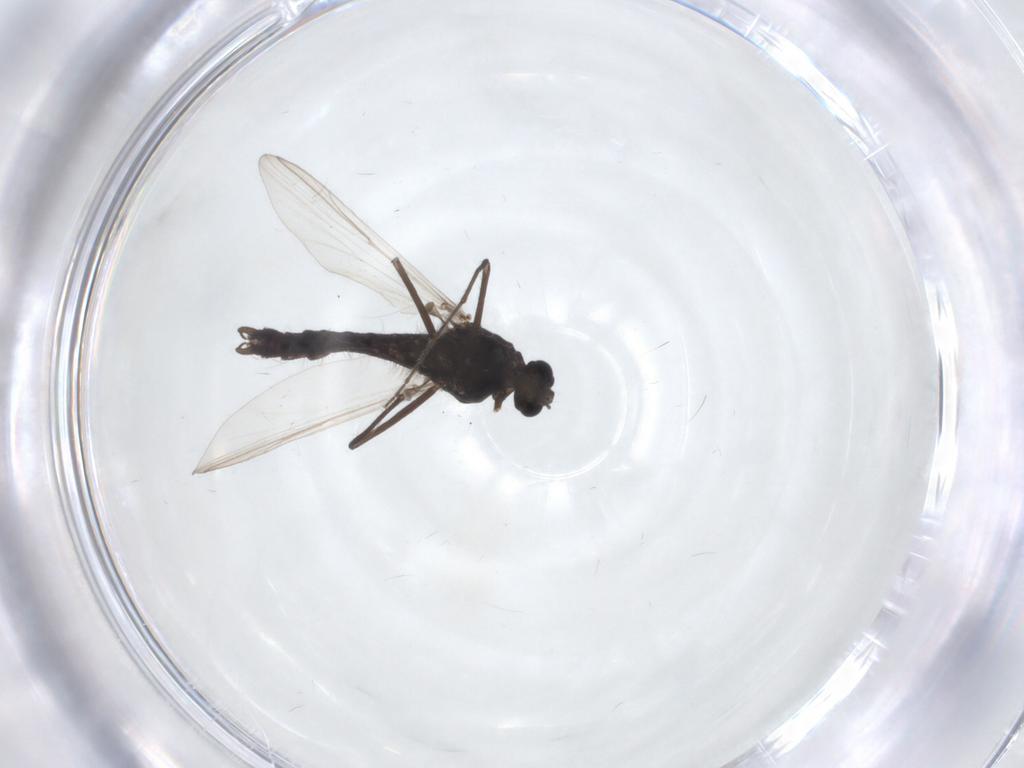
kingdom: Animalia
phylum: Arthropoda
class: Insecta
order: Diptera
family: Chironomidae
